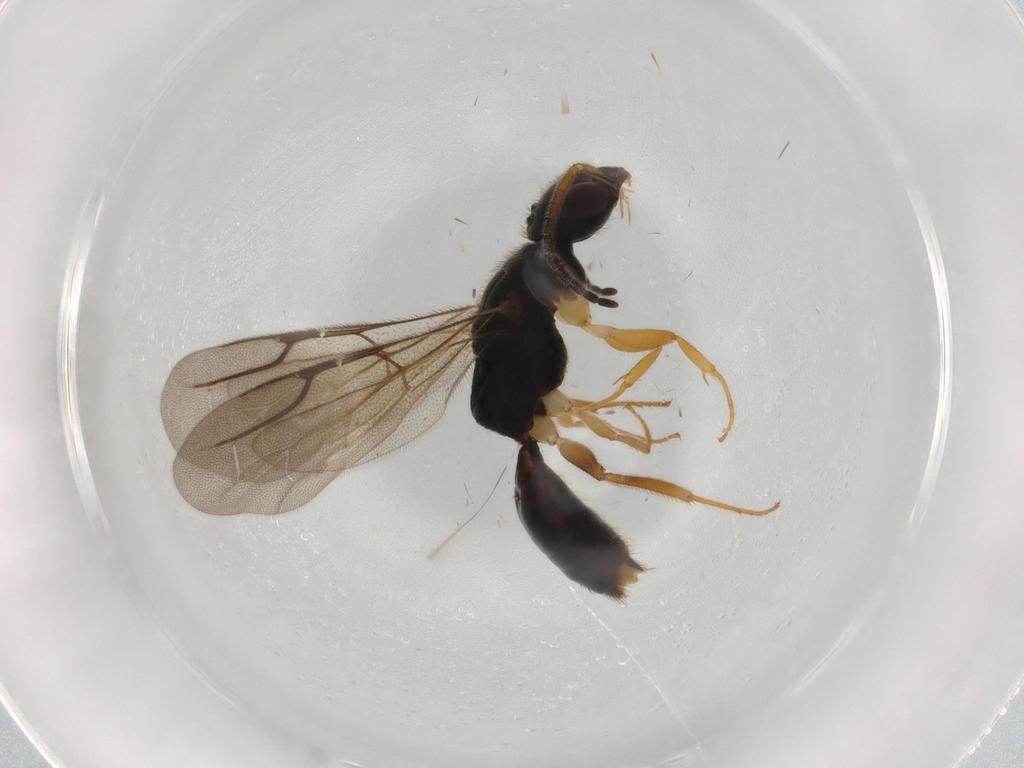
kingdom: Animalia
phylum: Arthropoda
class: Insecta
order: Hymenoptera
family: Bethylidae
